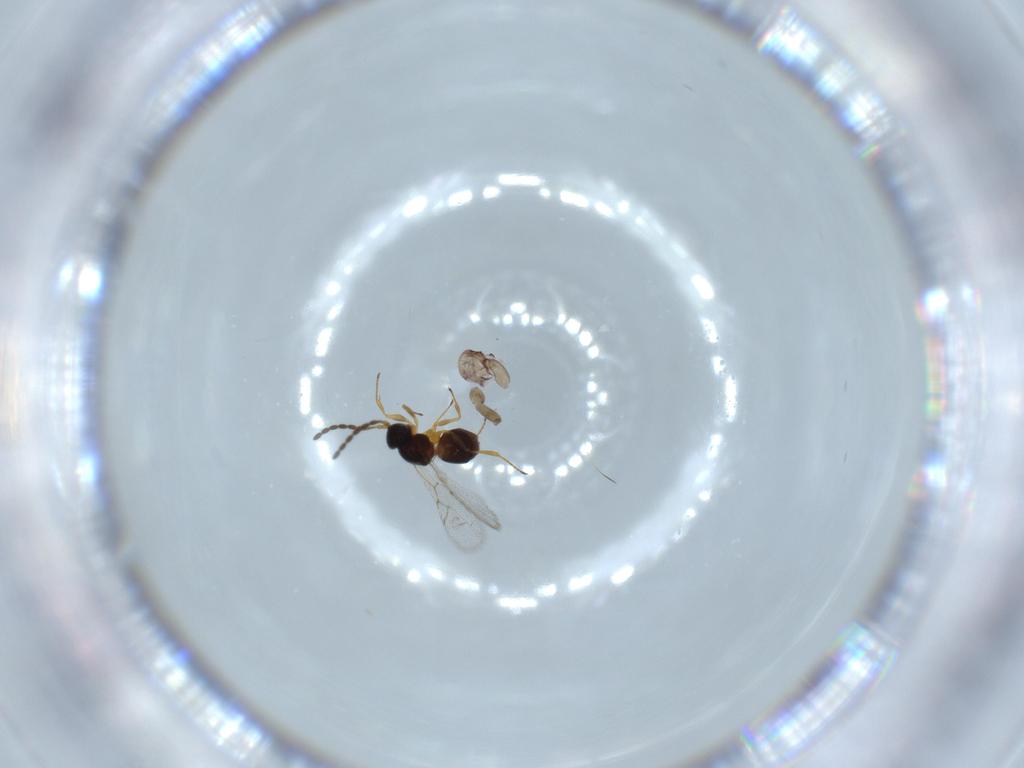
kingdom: Animalia
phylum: Arthropoda
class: Insecta
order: Hymenoptera
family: Figitidae
